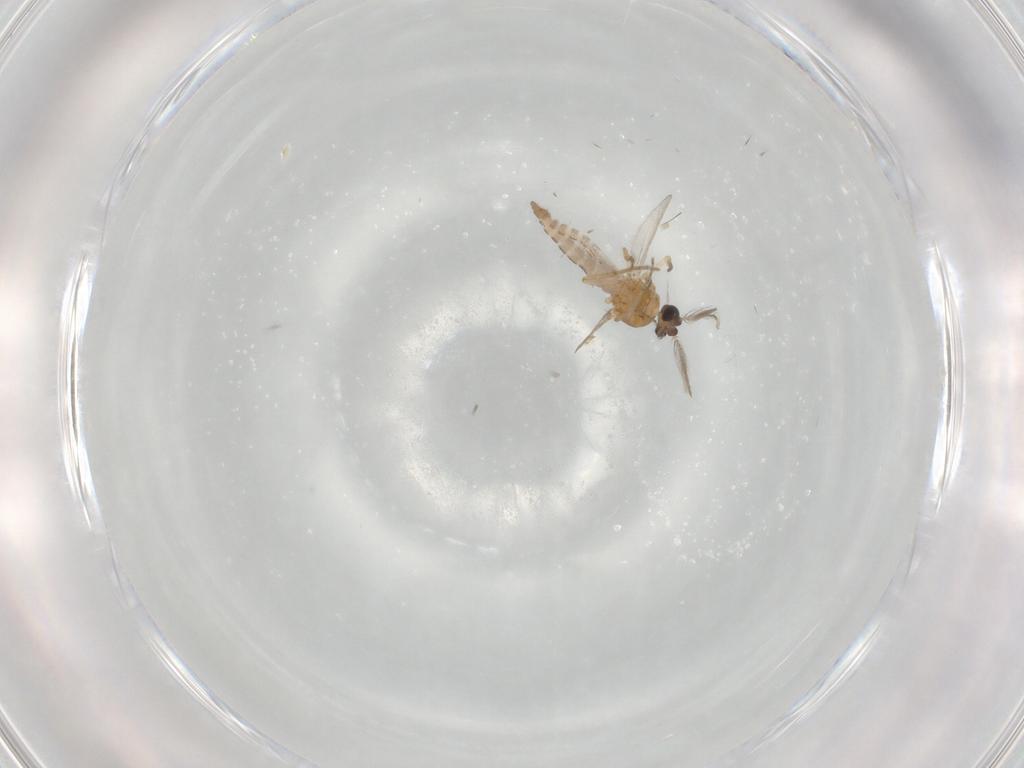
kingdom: Animalia
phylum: Arthropoda
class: Insecta
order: Diptera
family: Chironomidae
